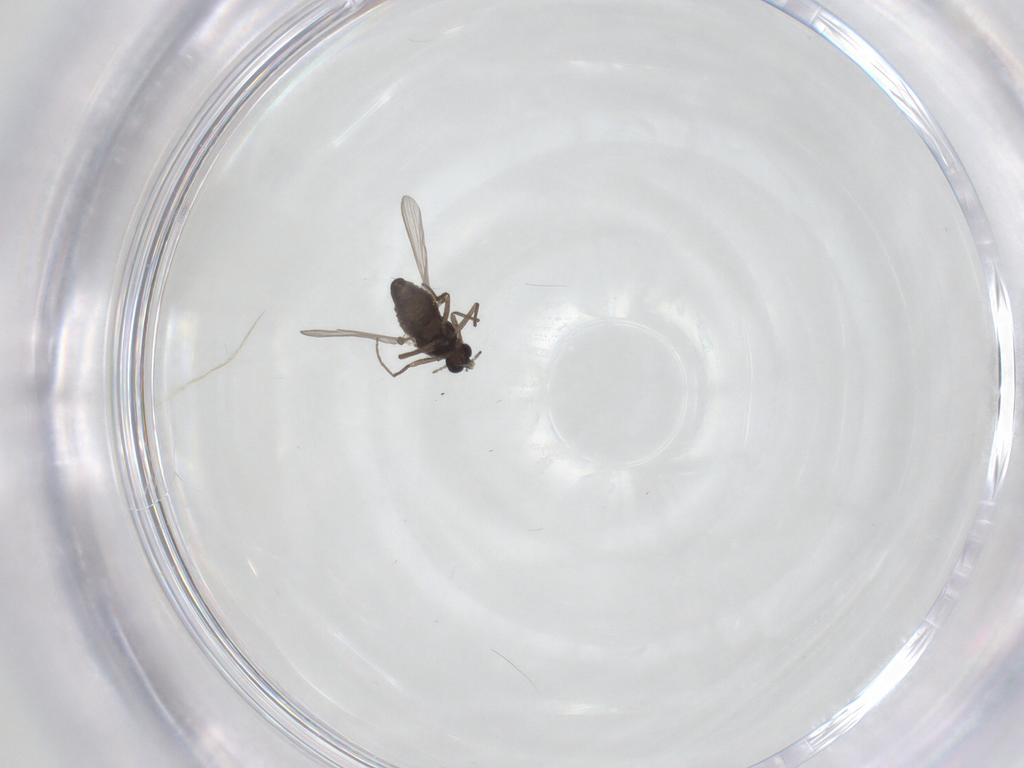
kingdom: Animalia
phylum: Arthropoda
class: Insecta
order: Diptera
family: Chironomidae
